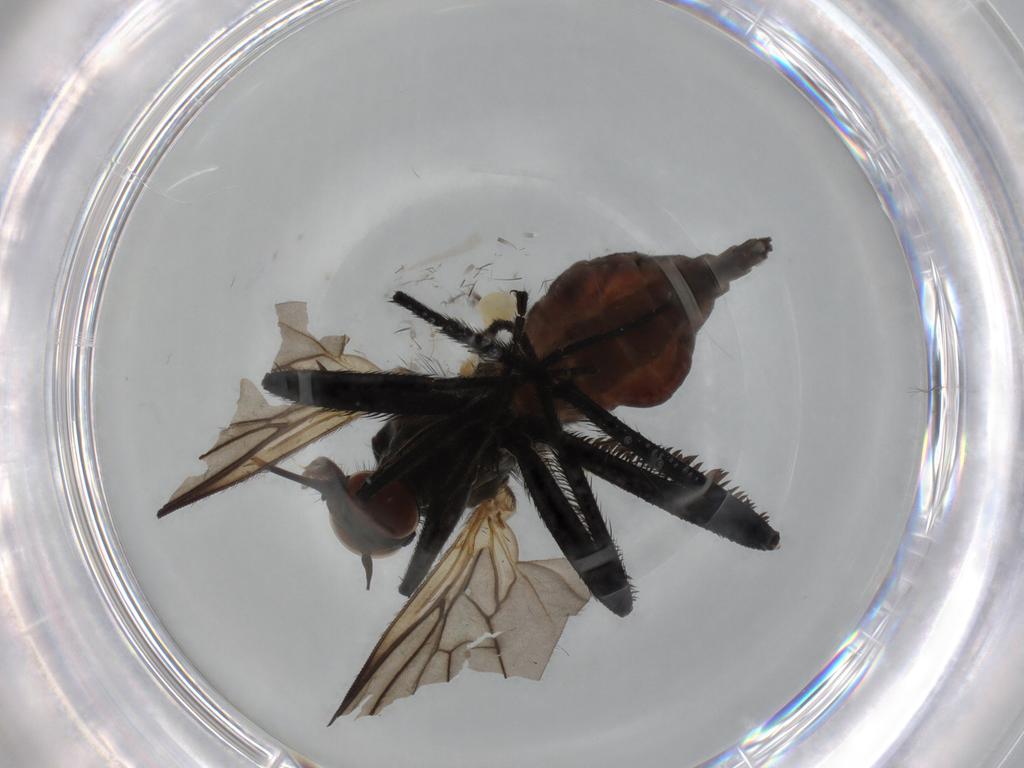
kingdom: Animalia
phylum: Arthropoda
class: Insecta
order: Diptera
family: Empididae
